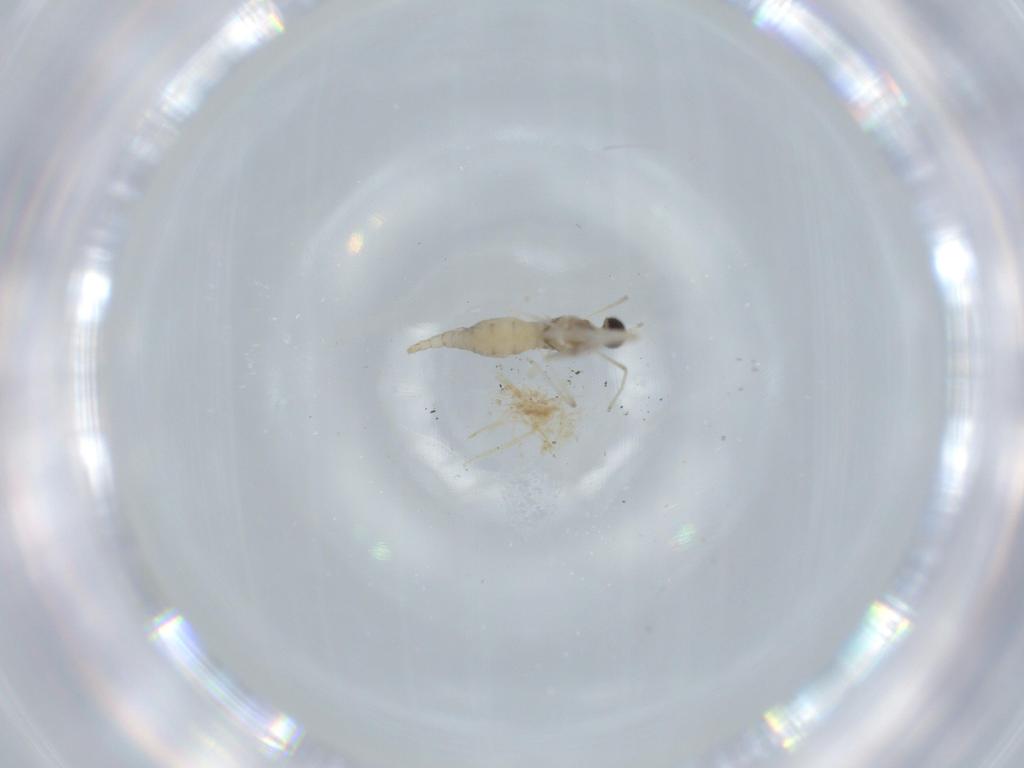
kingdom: Animalia
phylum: Arthropoda
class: Insecta
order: Diptera
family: Cecidomyiidae
